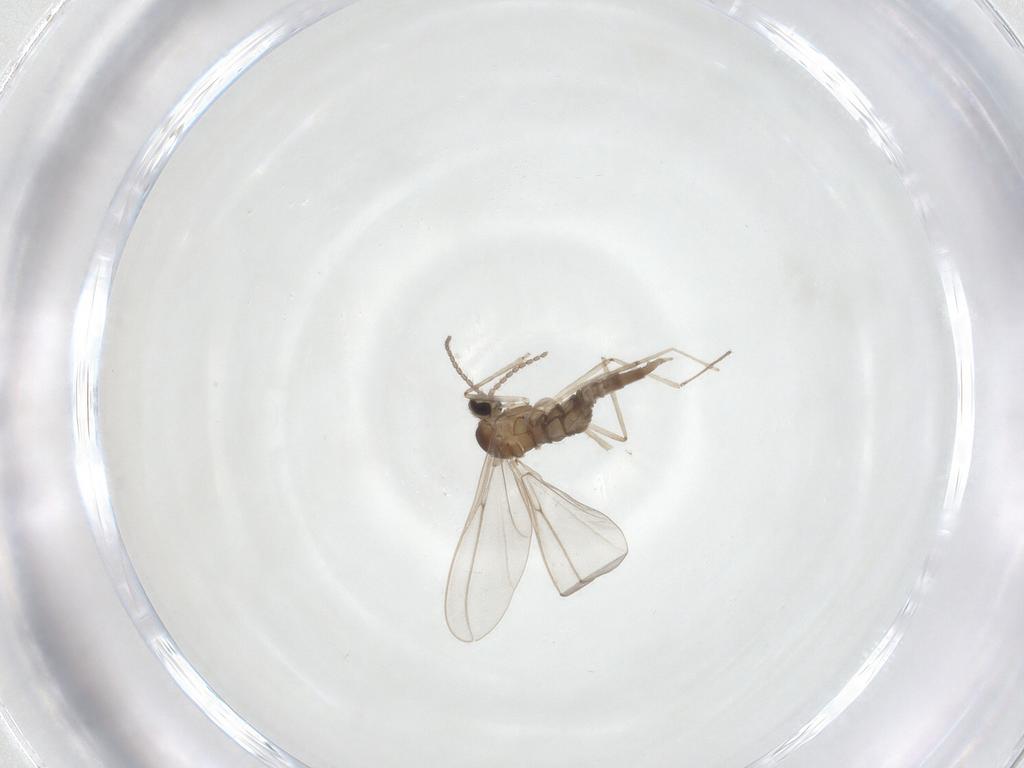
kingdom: Animalia
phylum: Arthropoda
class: Insecta
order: Diptera
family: Cecidomyiidae
